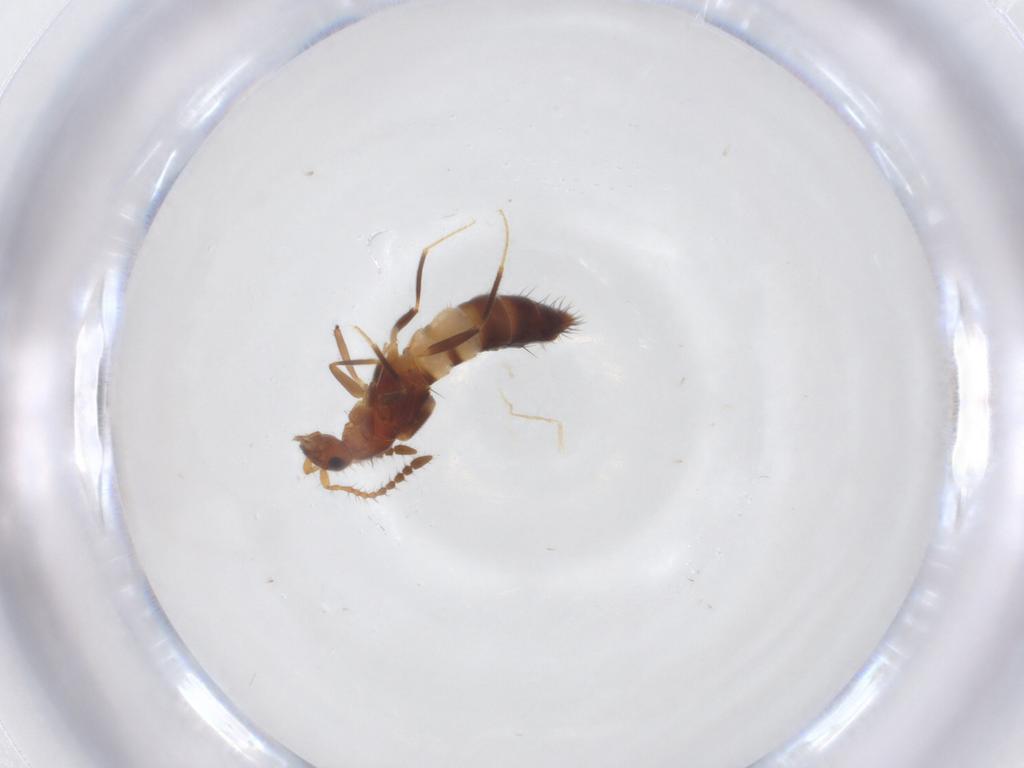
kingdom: Animalia
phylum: Arthropoda
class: Insecta
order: Coleoptera
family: Staphylinidae
